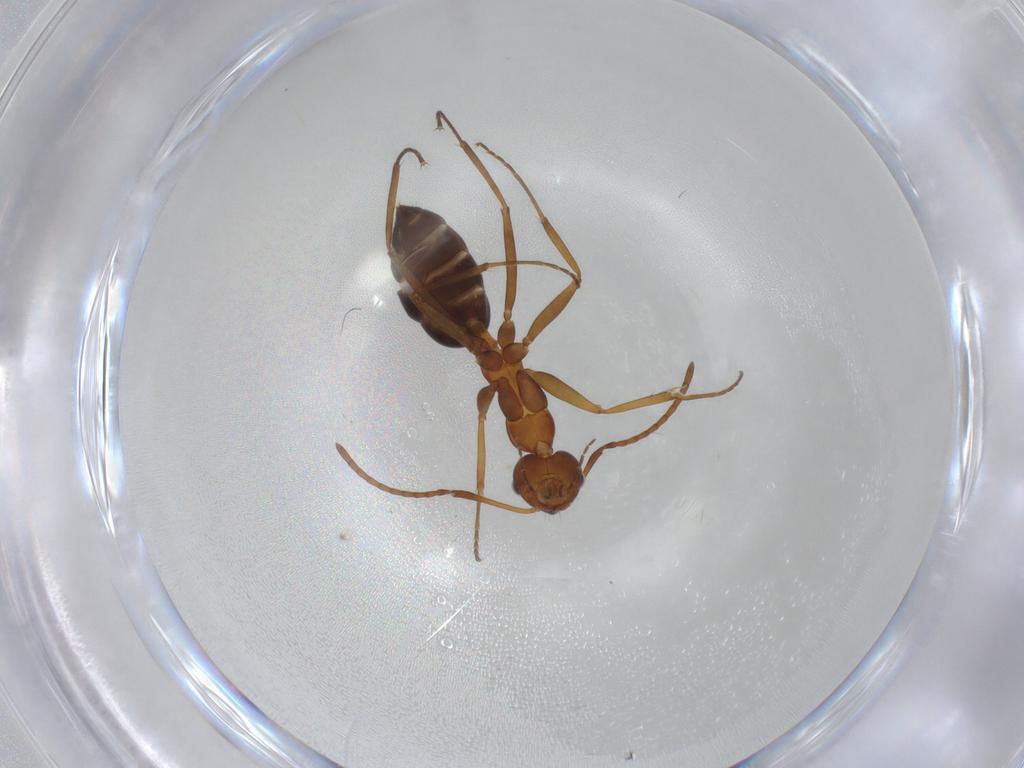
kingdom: Animalia
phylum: Arthropoda
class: Insecta
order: Hymenoptera
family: Formicidae
